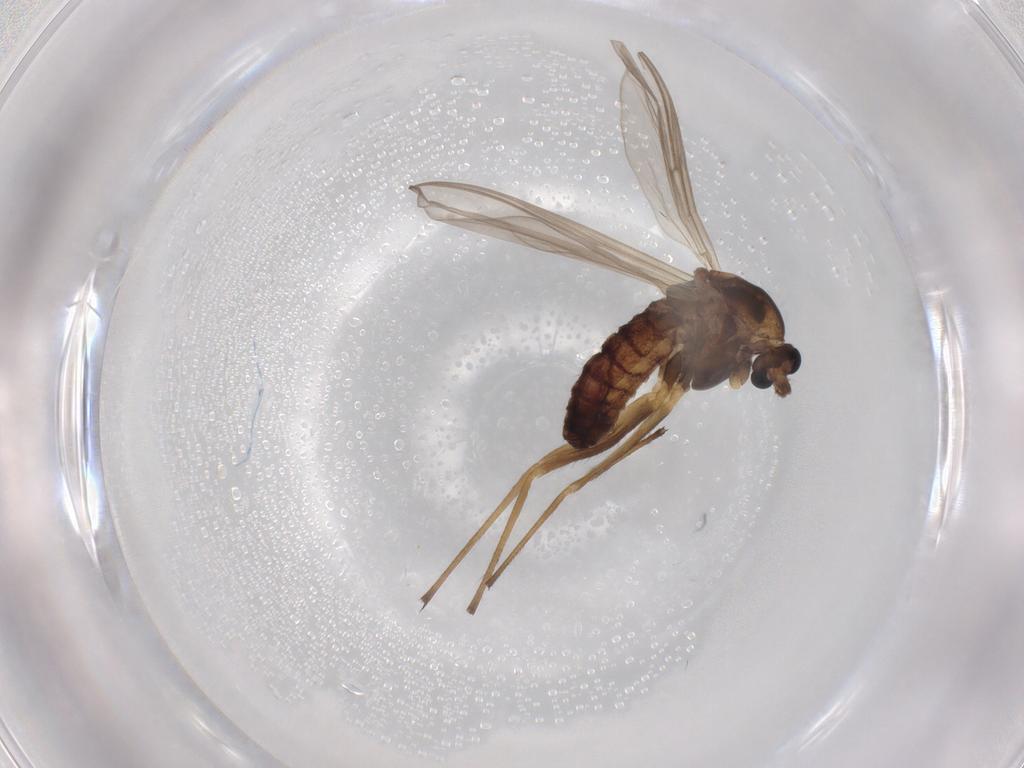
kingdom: Animalia
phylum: Arthropoda
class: Insecta
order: Diptera
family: Chironomidae
